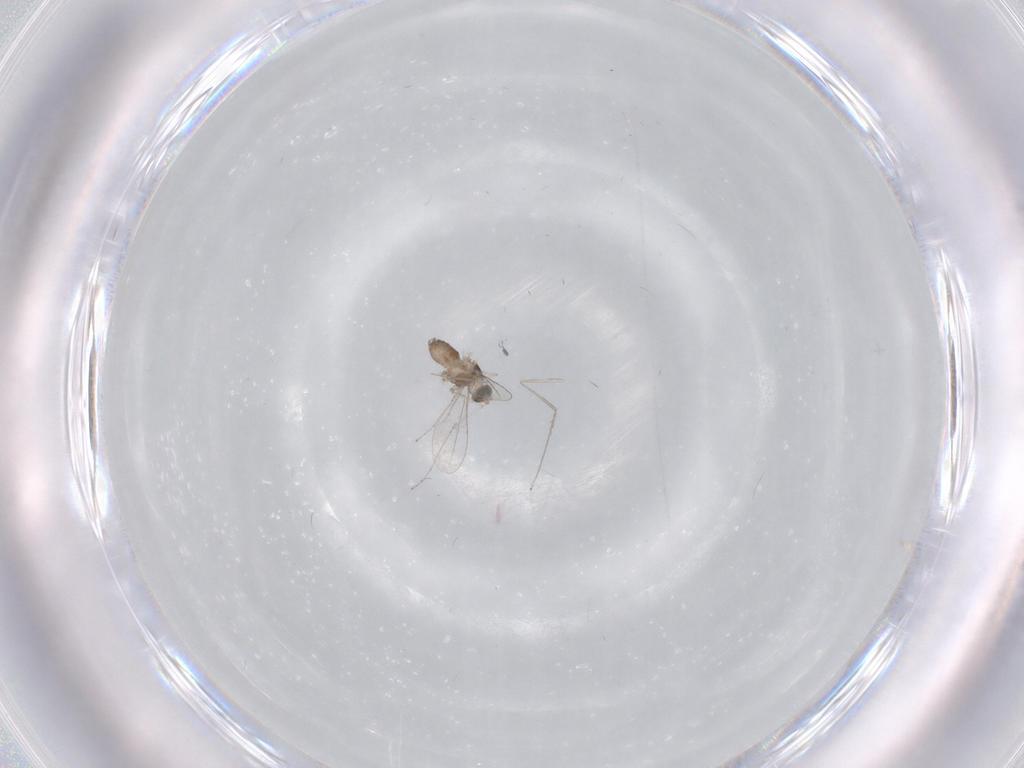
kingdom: Animalia
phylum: Arthropoda
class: Insecta
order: Diptera
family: Cecidomyiidae
